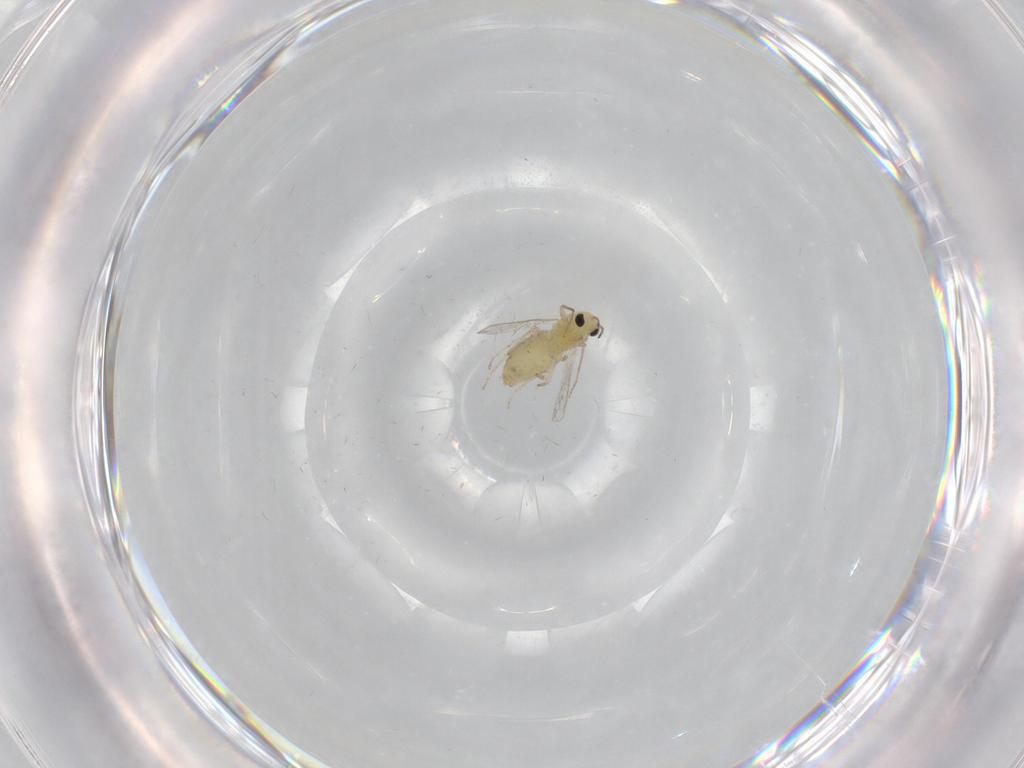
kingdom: Animalia
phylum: Arthropoda
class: Insecta
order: Diptera
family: Chironomidae
